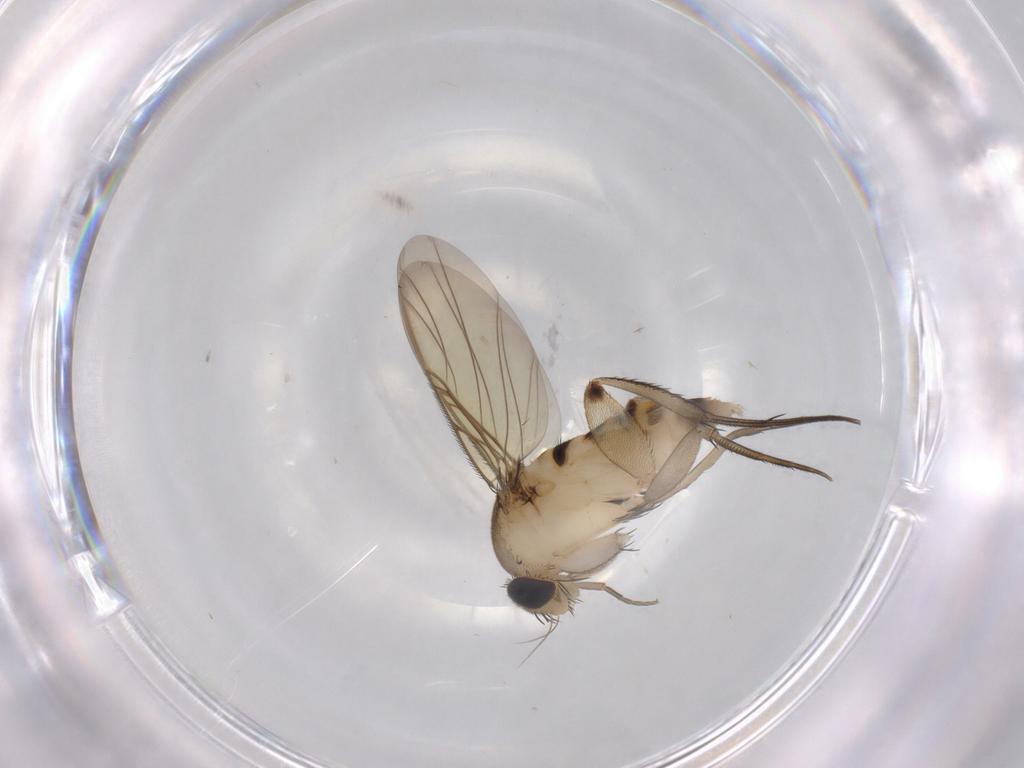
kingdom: Animalia
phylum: Arthropoda
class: Insecta
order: Diptera
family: Phoridae
